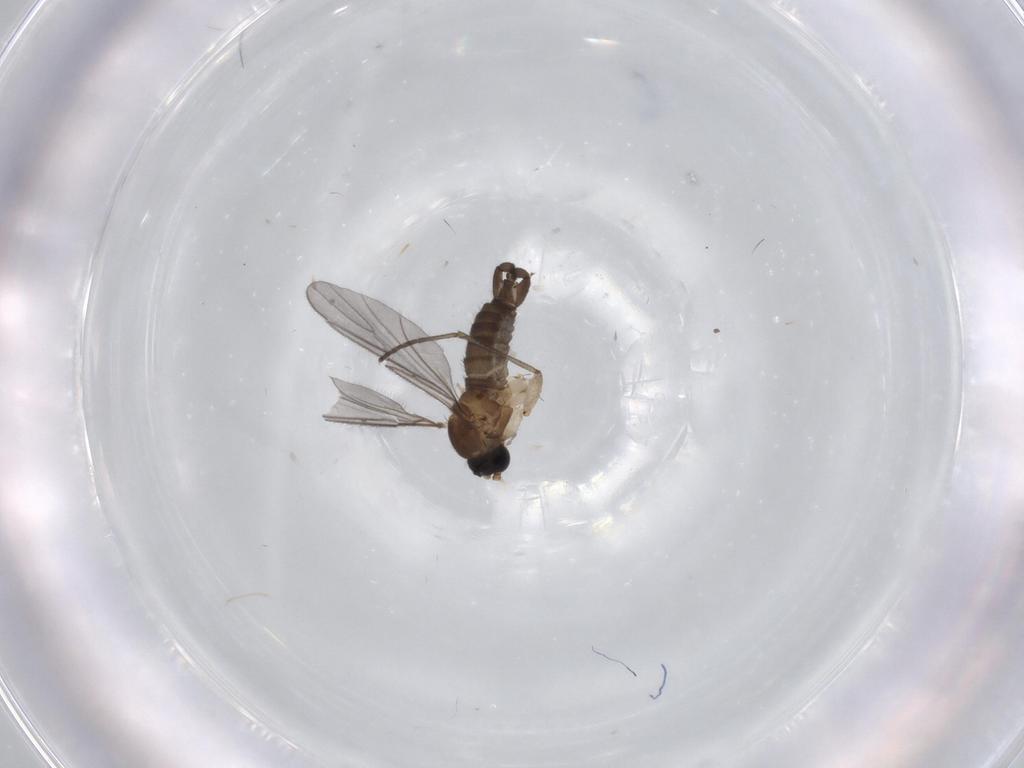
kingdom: Animalia
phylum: Arthropoda
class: Insecta
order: Diptera
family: Sciaridae
